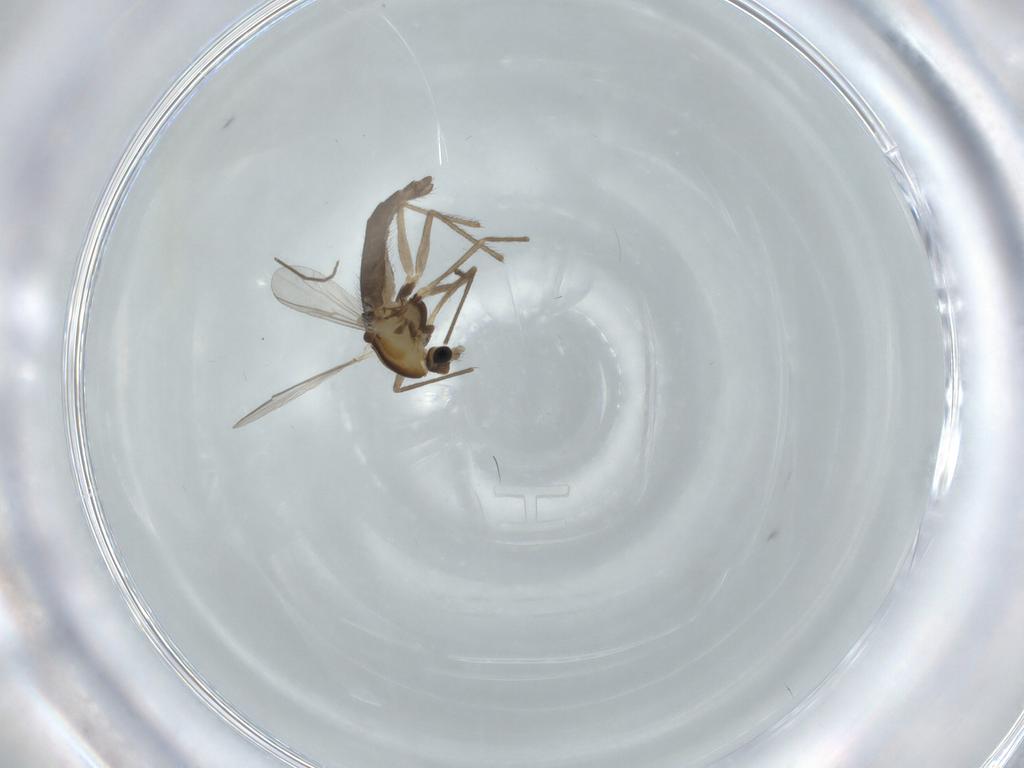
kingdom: Animalia
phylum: Arthropoda
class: Insecta
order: Diptera
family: Chironomidae
